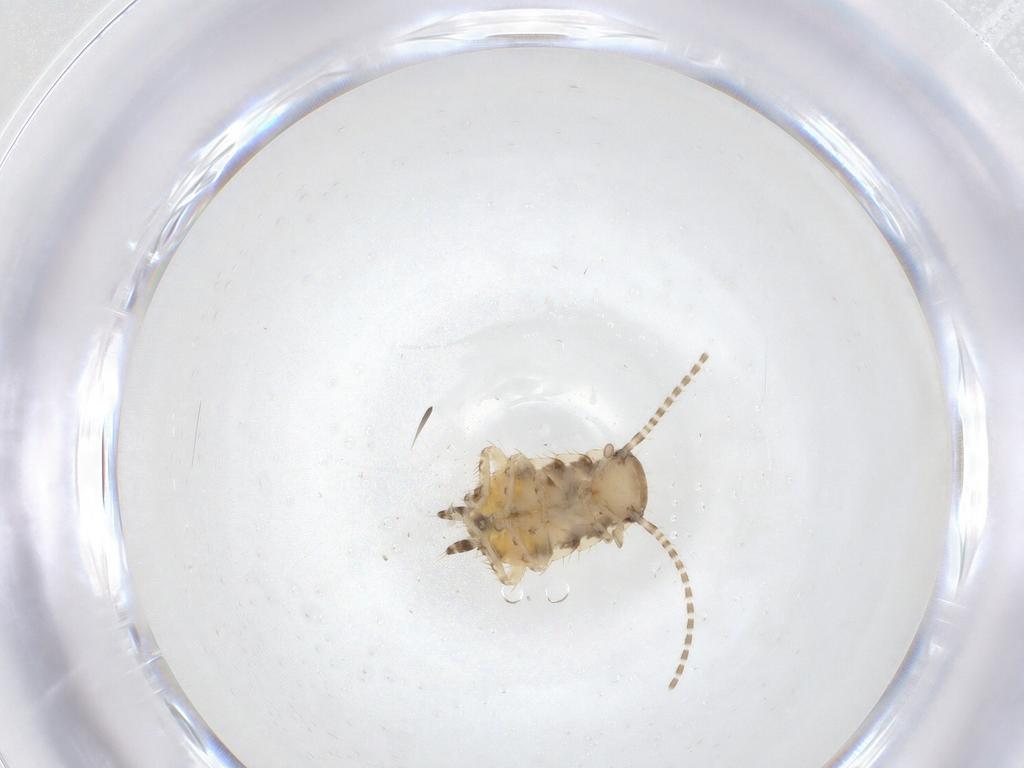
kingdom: Animalia
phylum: Arthropoda
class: Insecta
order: Blattodea
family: Ectobiidae
